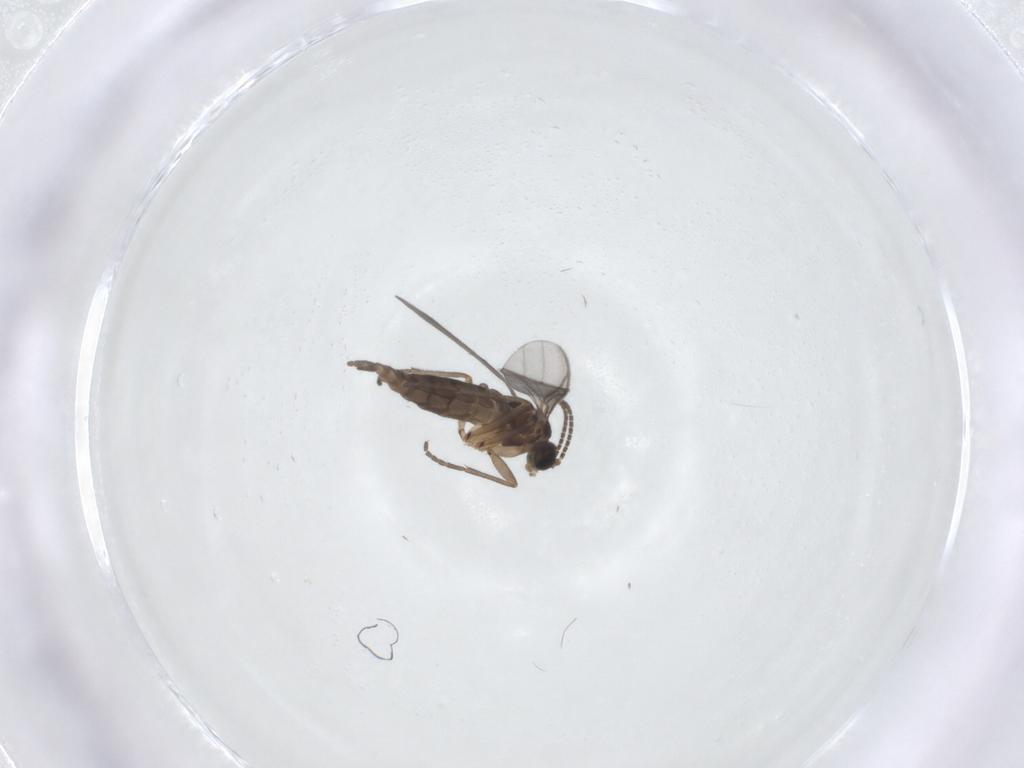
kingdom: Animalia
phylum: Arthropoda
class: Insecta
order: Diptera
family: Sciaridae
